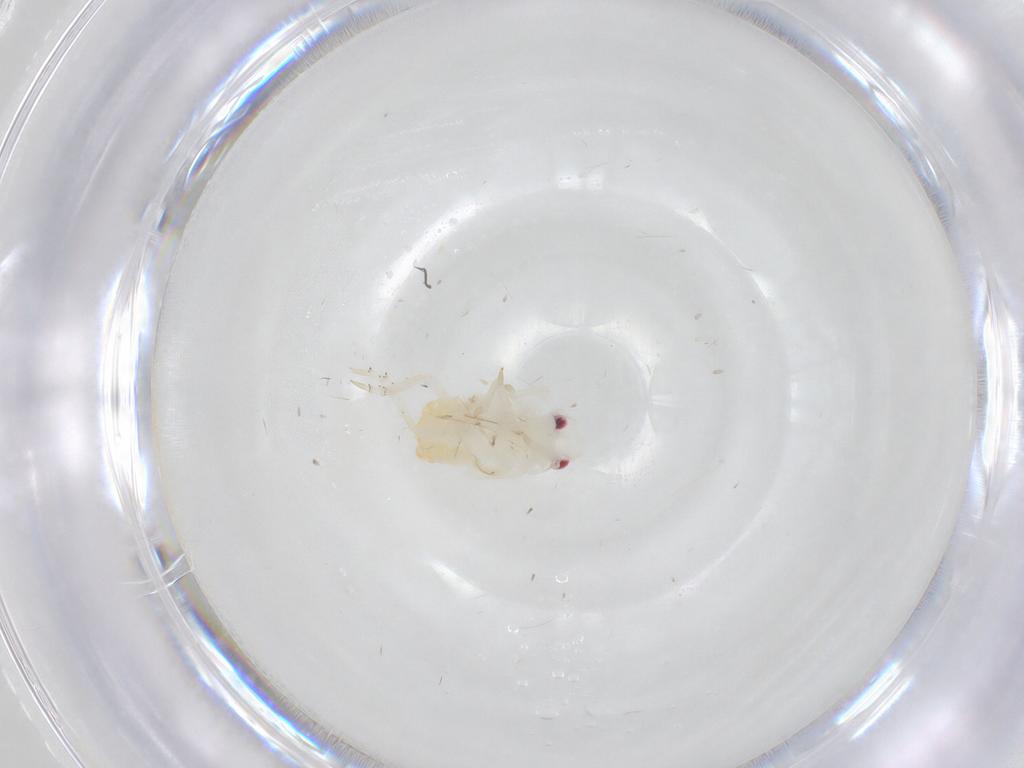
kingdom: Animalia
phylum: Arthropoda
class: Insecta
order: Hemiptera
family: Fulgoroidea_incertae_sedis
